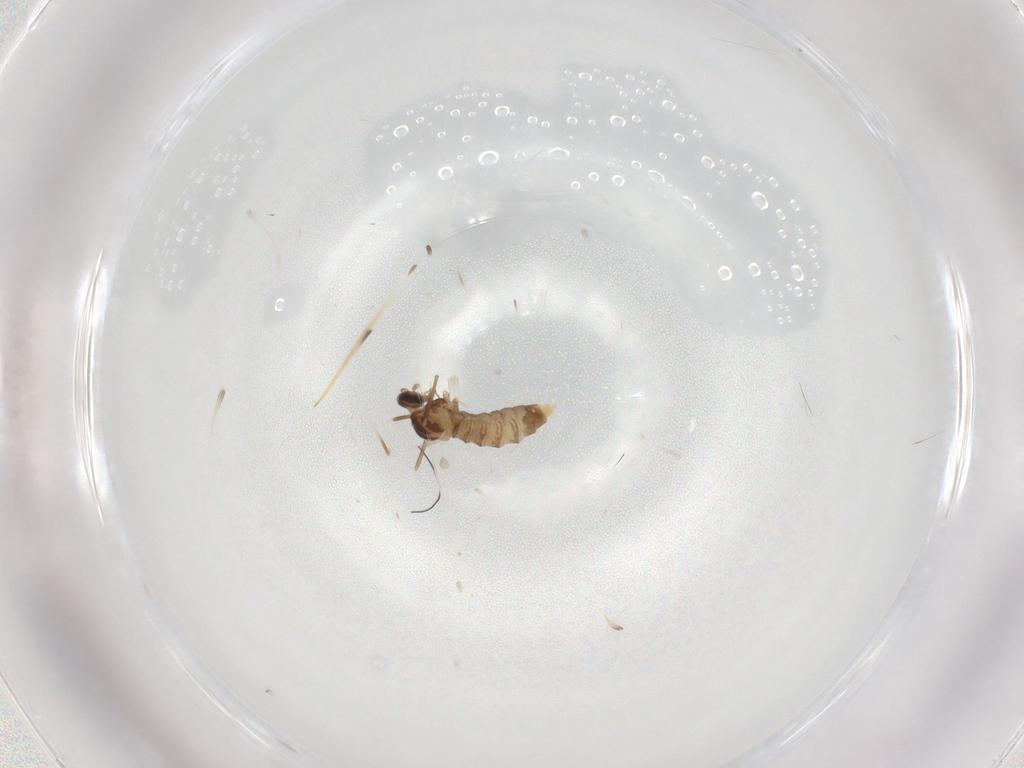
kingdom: Animalia
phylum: Arthropoda
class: Insecta
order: Diptera
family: Cecidomyiidae
